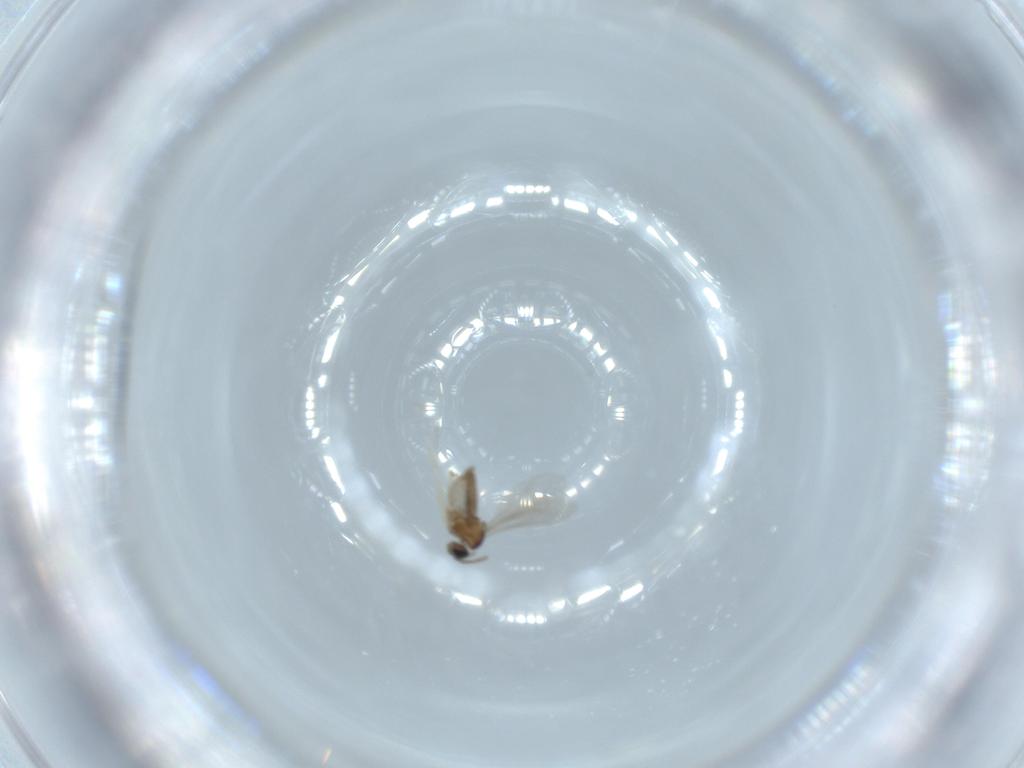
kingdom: Animalia
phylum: Arthropoda
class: Insecta
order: Diptera
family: Cecidomyiidae
